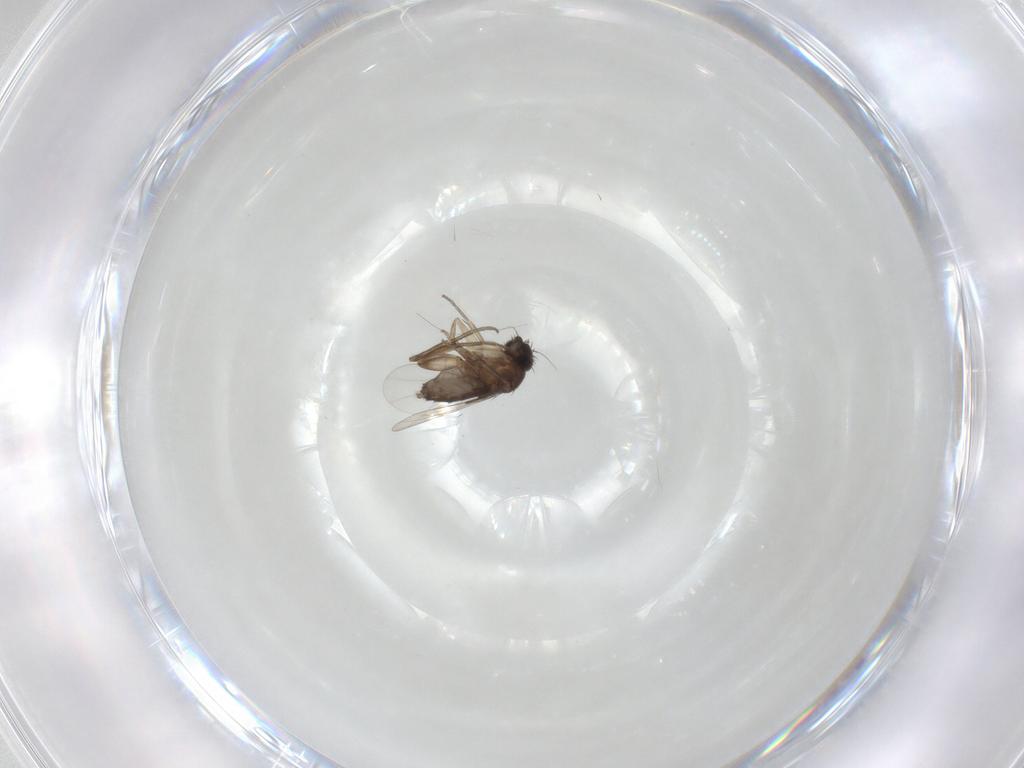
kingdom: Animalia
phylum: Arthropoda
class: Insecta
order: Diptera
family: Phoridae
